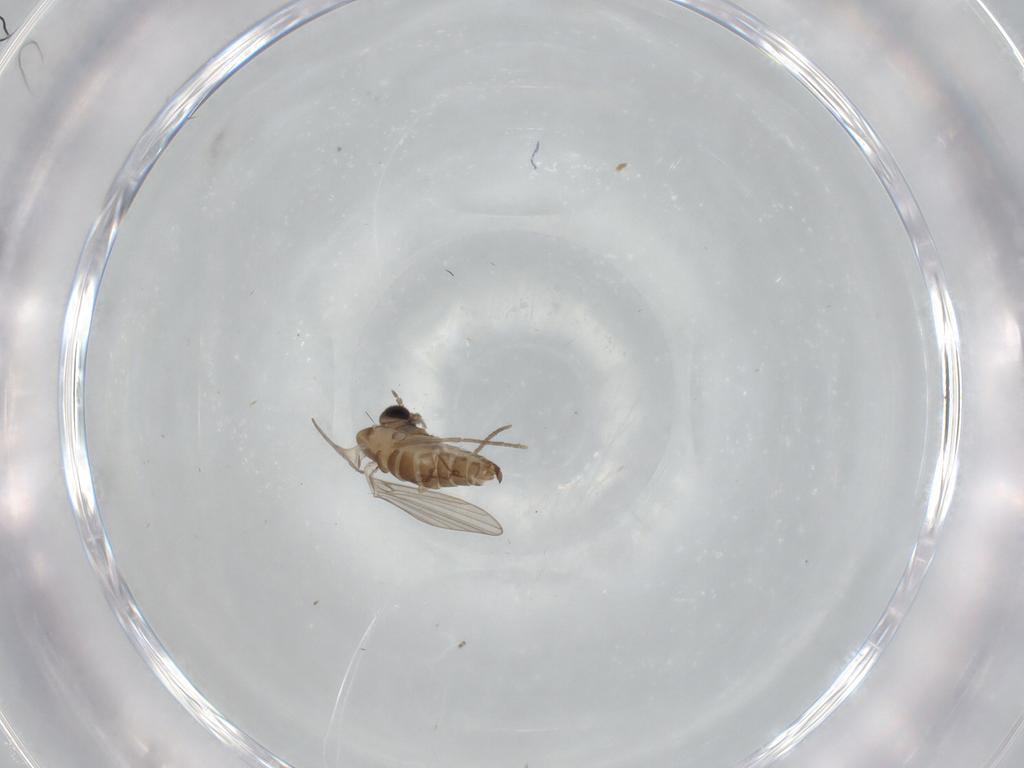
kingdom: Animalia
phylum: Arthropoda
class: Insecta
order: Diptera
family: Psychodidae
